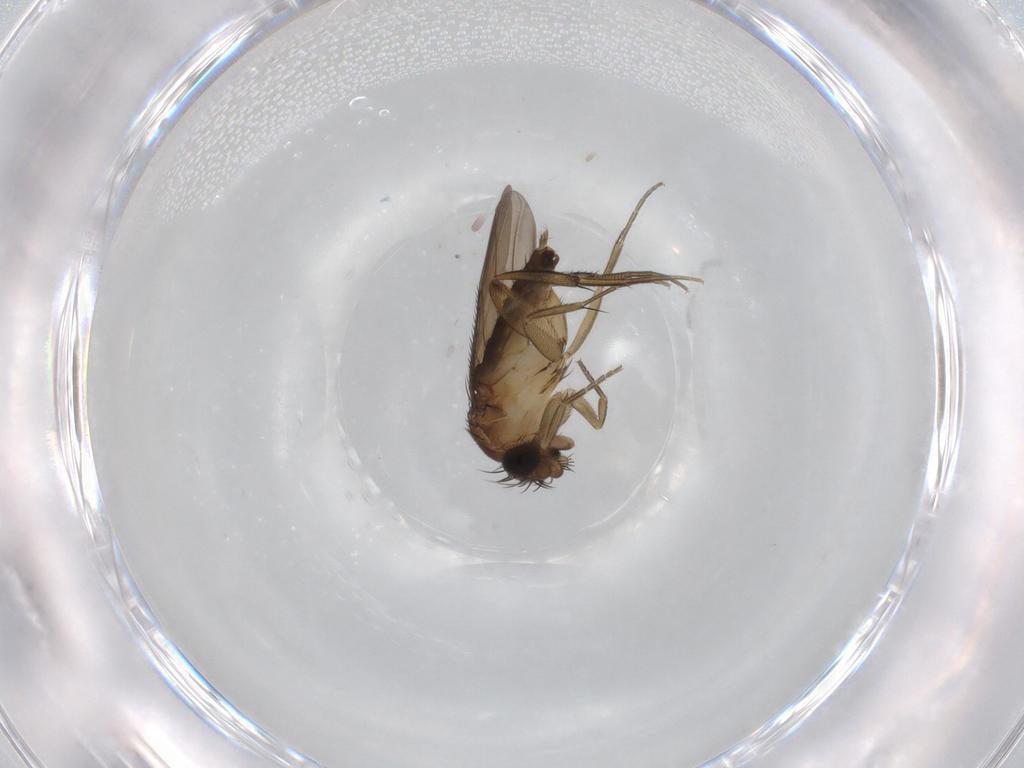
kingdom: Animalia
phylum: Arthropoda
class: Insecta
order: Diptera
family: Phoridae
